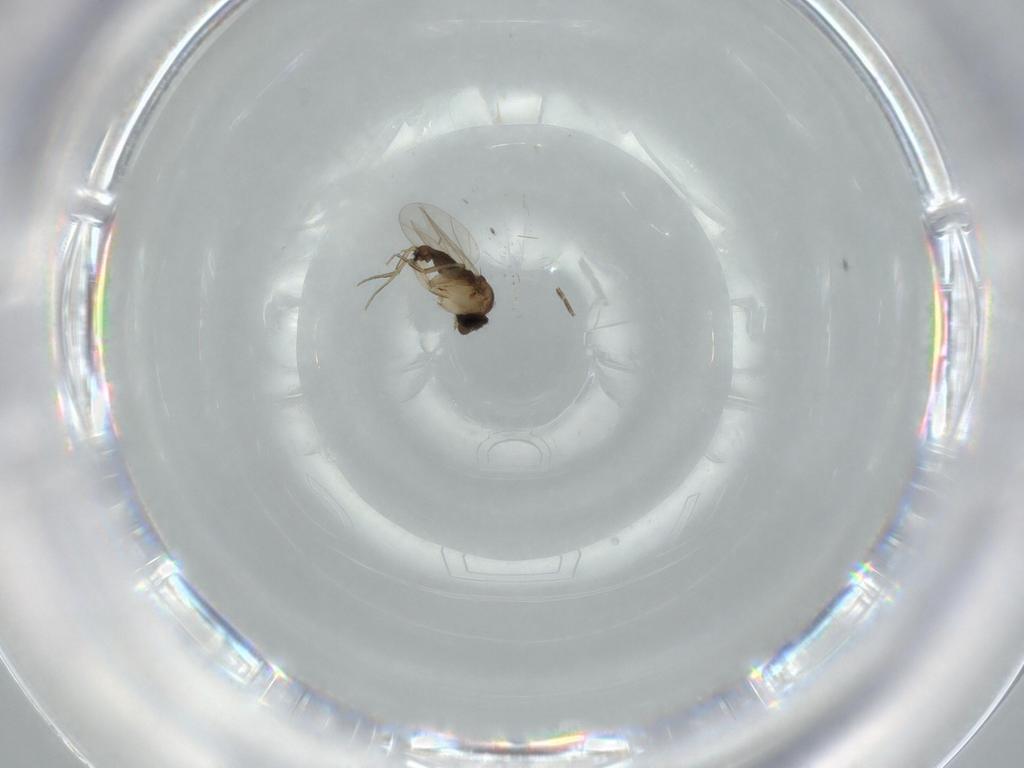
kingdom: Animalia
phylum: Arthropoda
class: Insecta
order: Diptera
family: Phoridae
